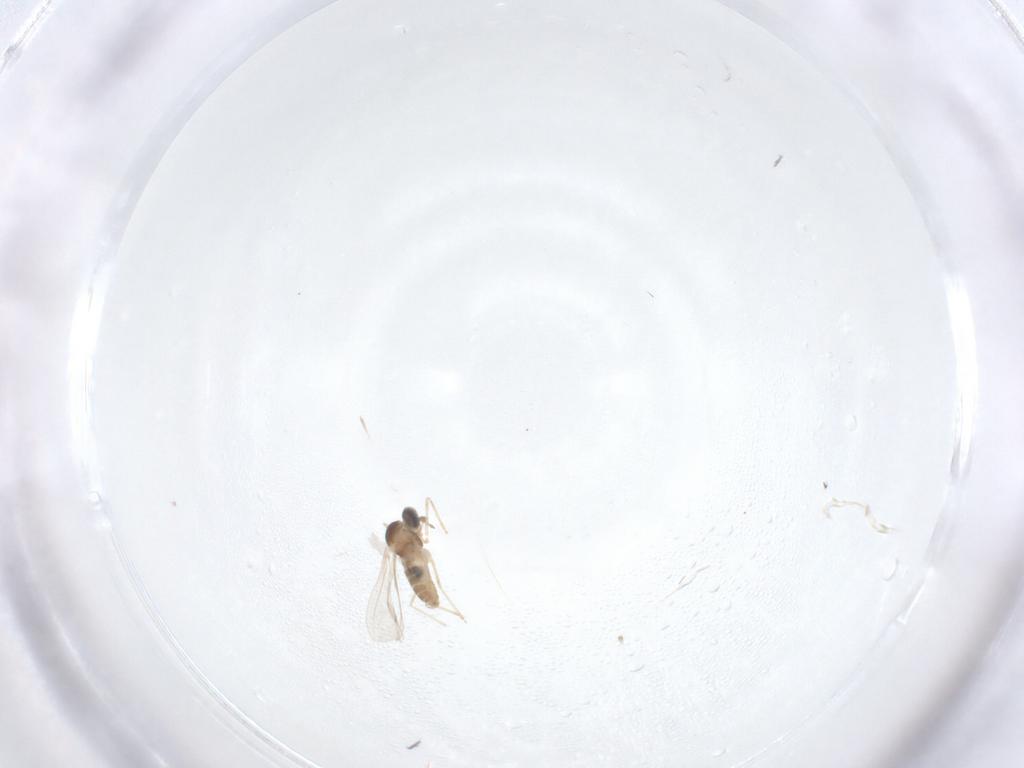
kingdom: Animalia
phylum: Arthropoda
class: Insecta
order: Diptera
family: Cecidomyiidae
